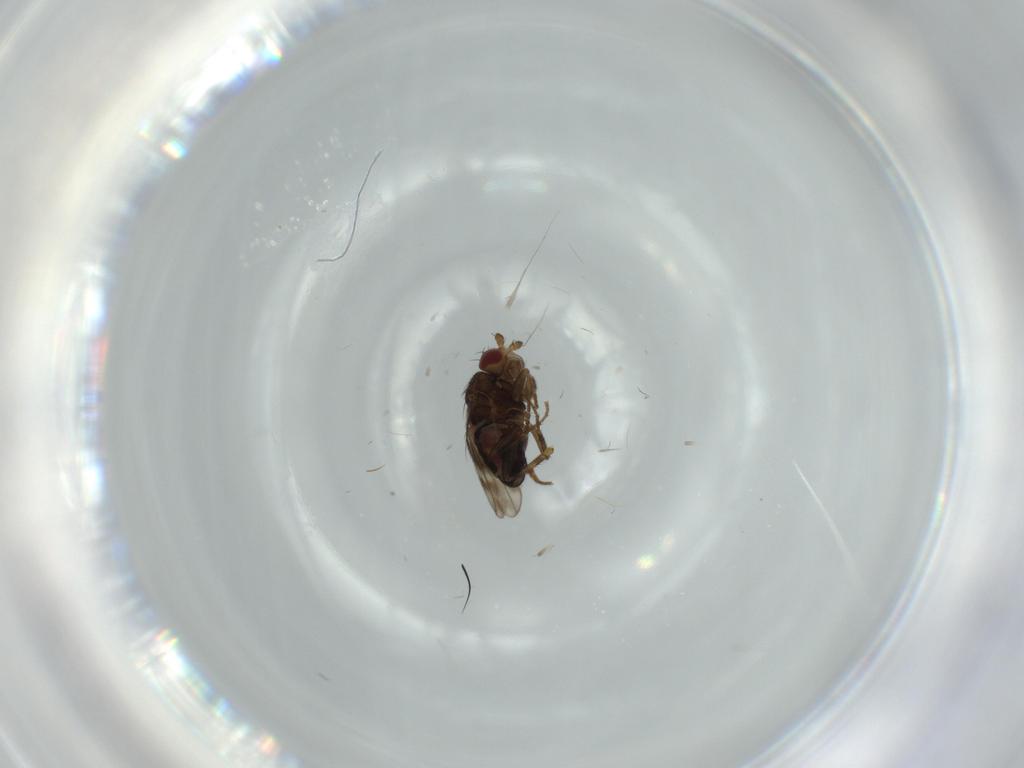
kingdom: Animalia
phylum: Arthropoda
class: Insecta
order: Diptera
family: Sphaeroceridae
